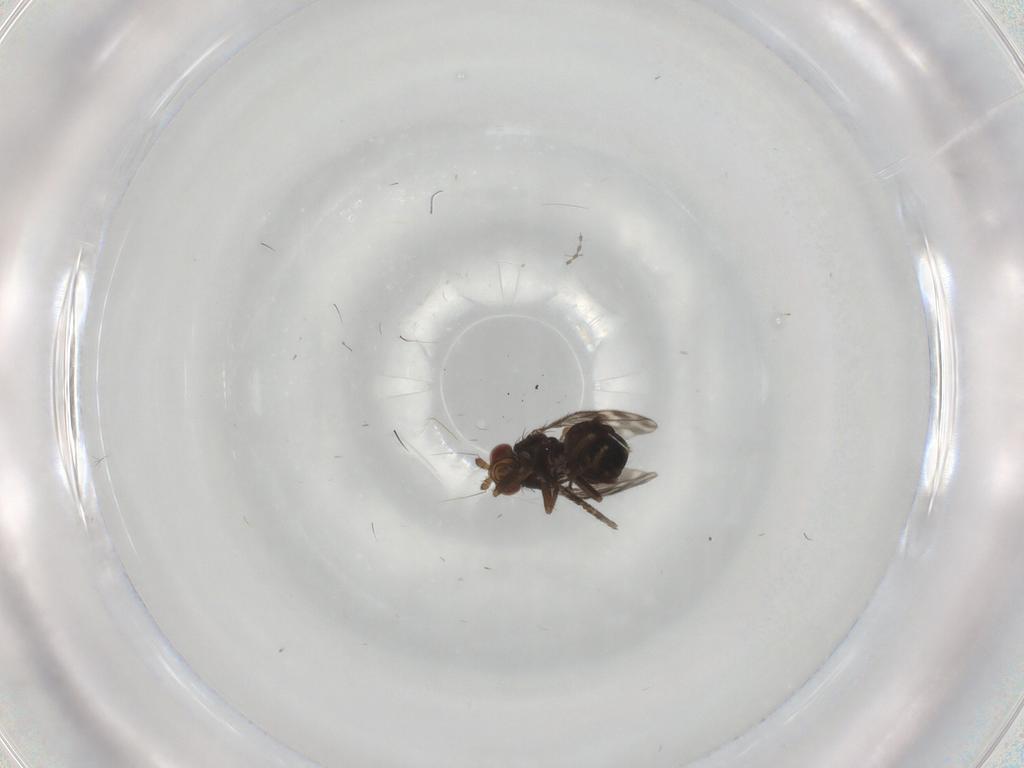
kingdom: Animalia
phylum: Arthropoda
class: Insecta
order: Diptera
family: Sphaeroceridae
